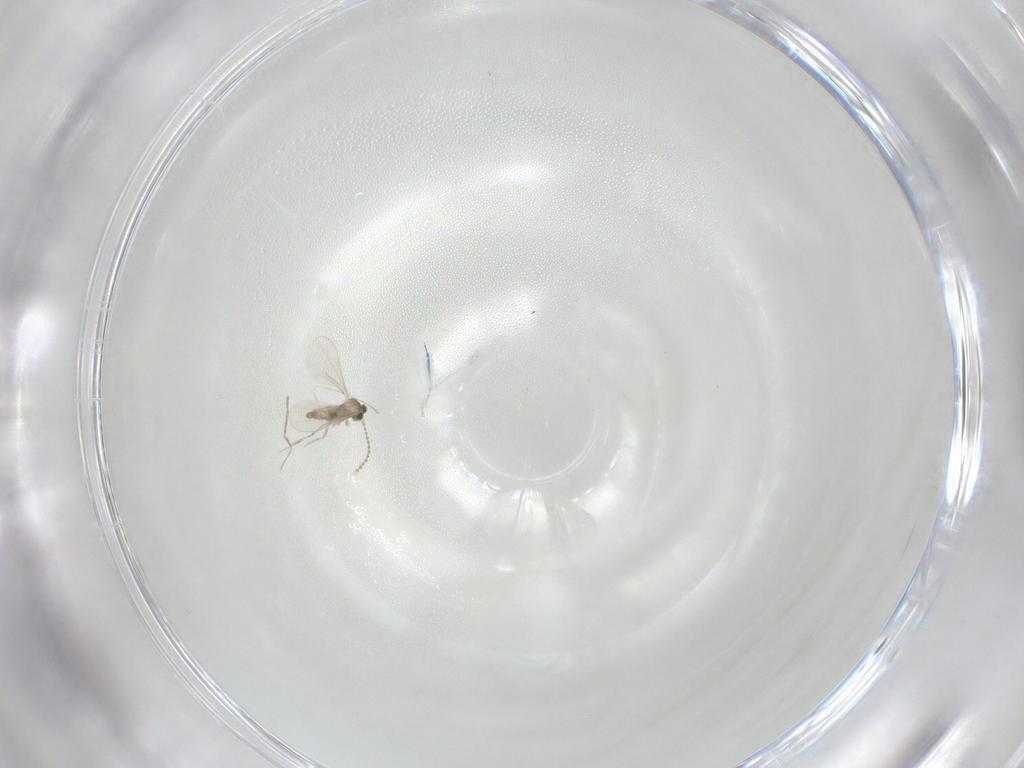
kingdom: Animalia
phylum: Arthropoda
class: Insecta
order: Diptera
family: Cecidomyiidae
